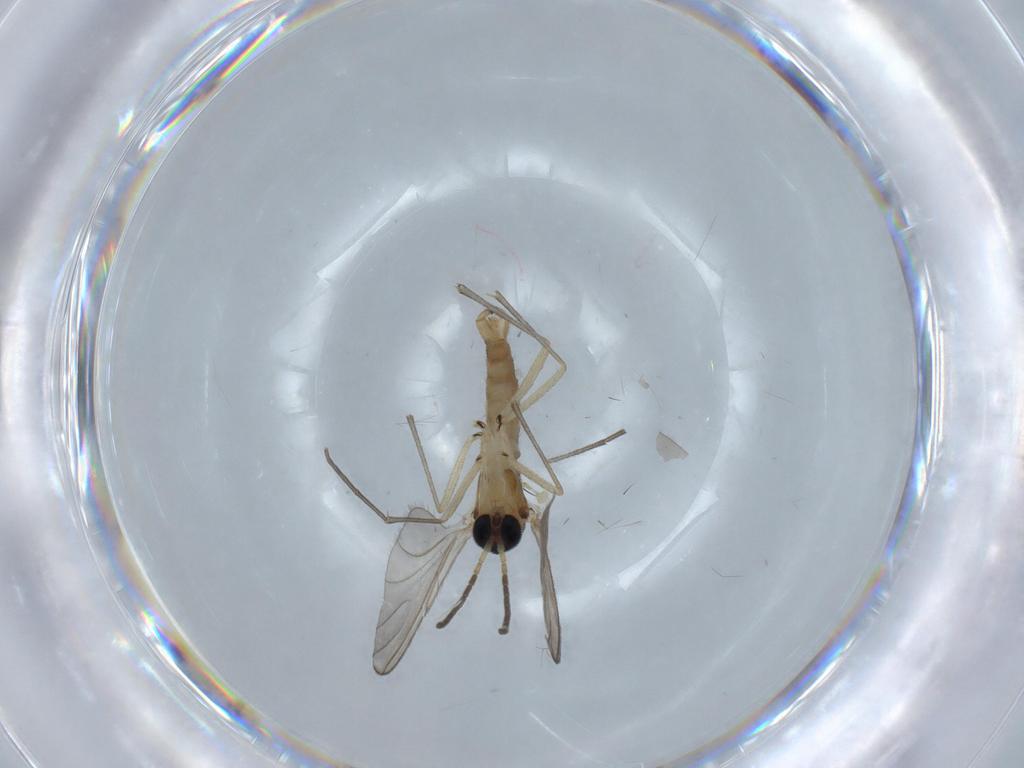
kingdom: Animalia
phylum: Arthropoda
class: Insecta
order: Diptera
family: Sciaridae
